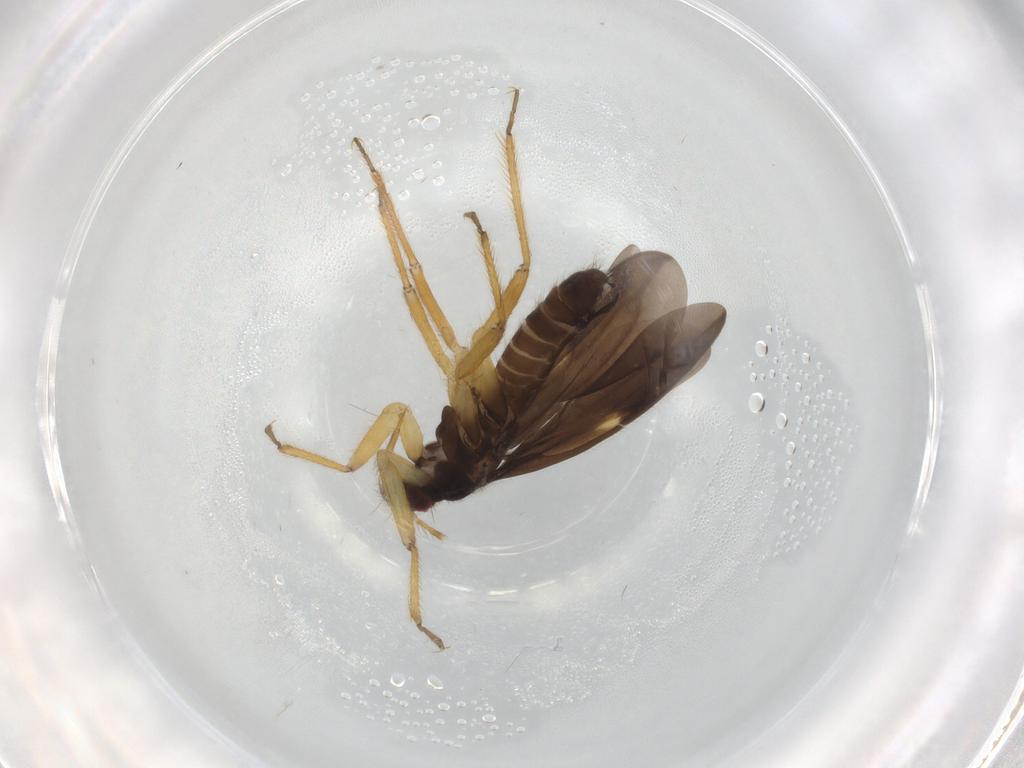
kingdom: Animalia
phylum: Arthropoda
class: Insecta
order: Hemiptera
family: Ceratocombidae
